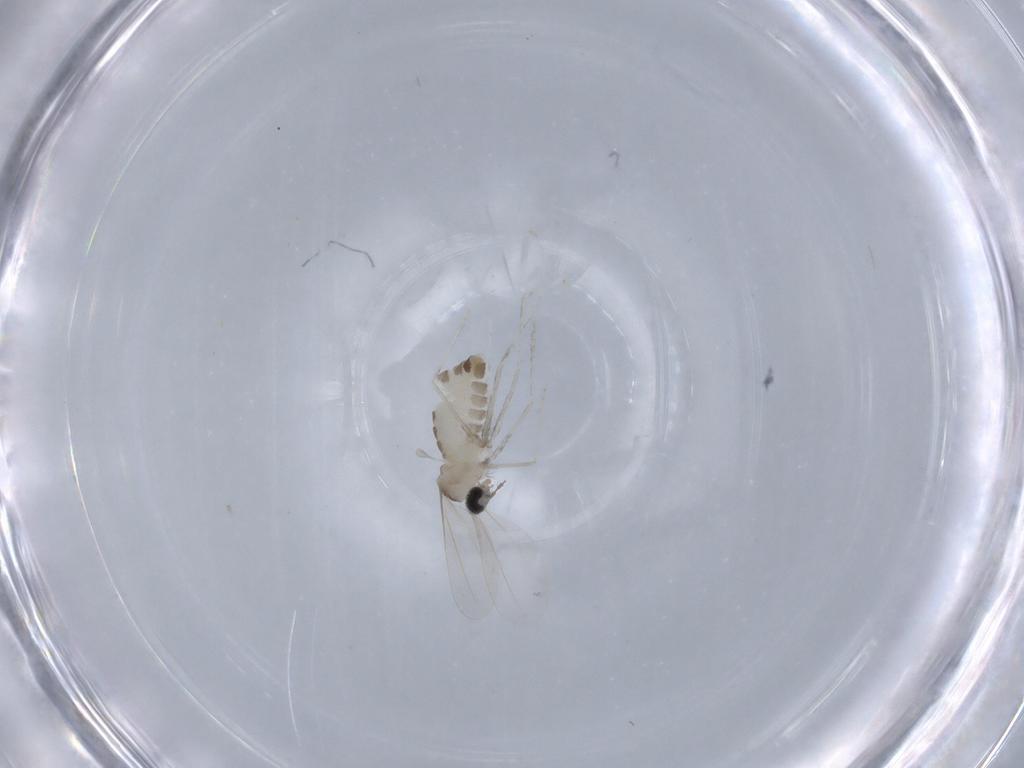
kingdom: Animalia
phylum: Arthropoda
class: Insecta
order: Diptera
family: Cecidomyiidae
